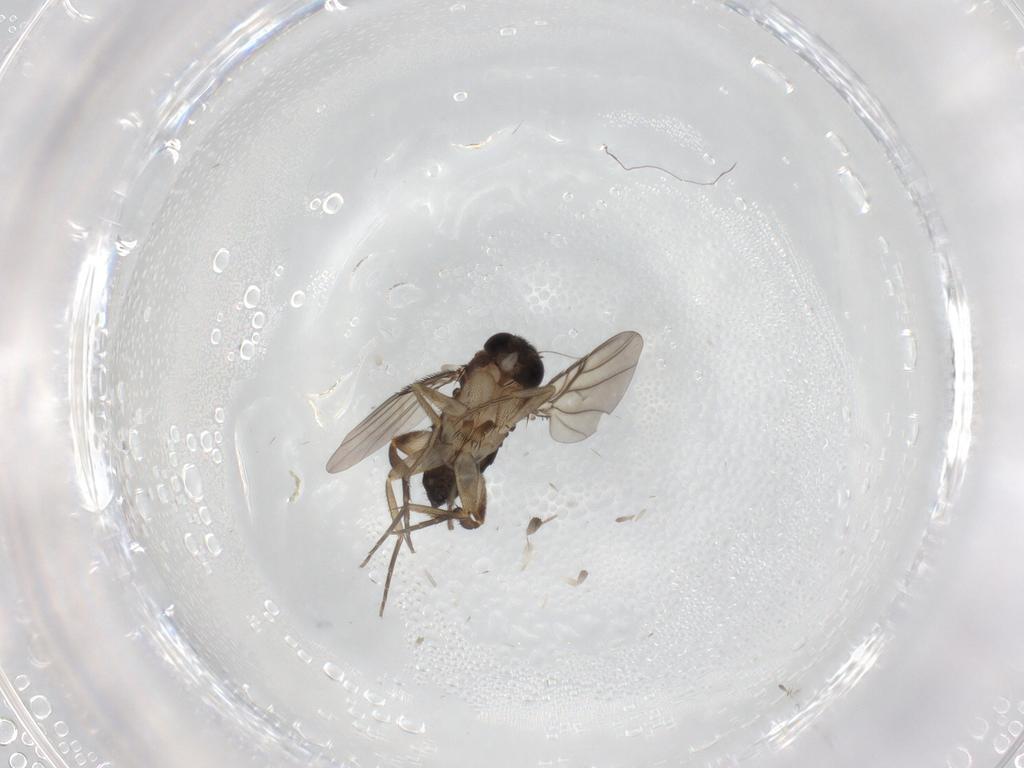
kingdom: Animalia
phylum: Arthropoda
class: Insecta
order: Diptera
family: Phoridae
